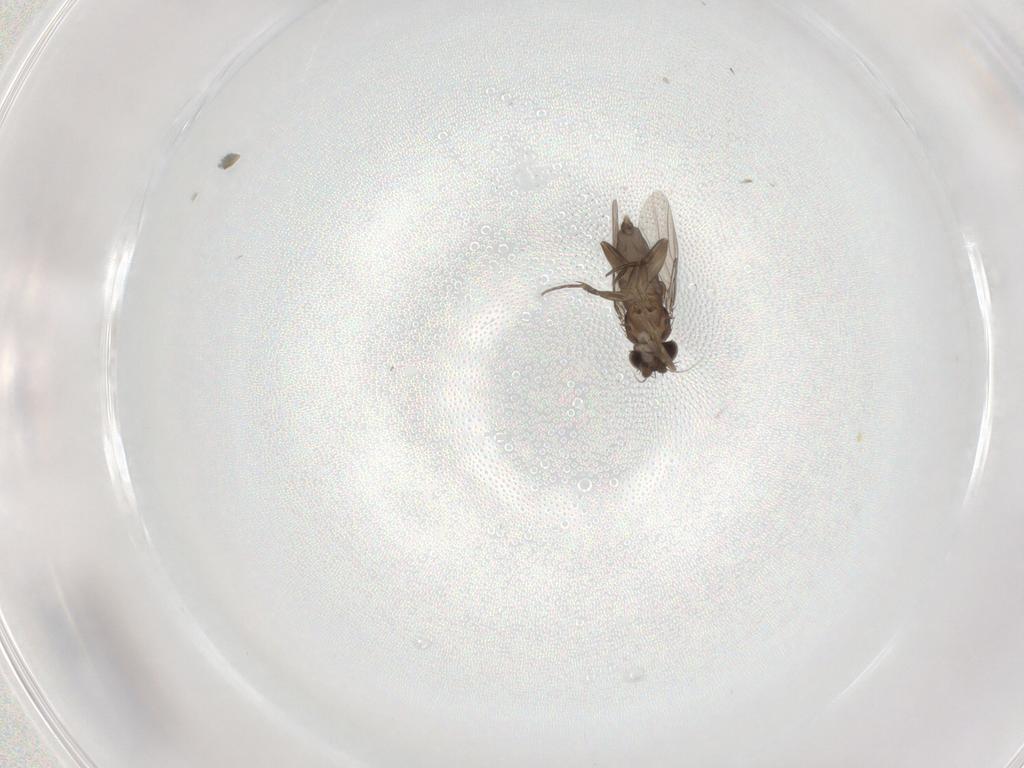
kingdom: Animalia
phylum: Arthropoda
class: Insecta
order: Diptera
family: Phoridae
